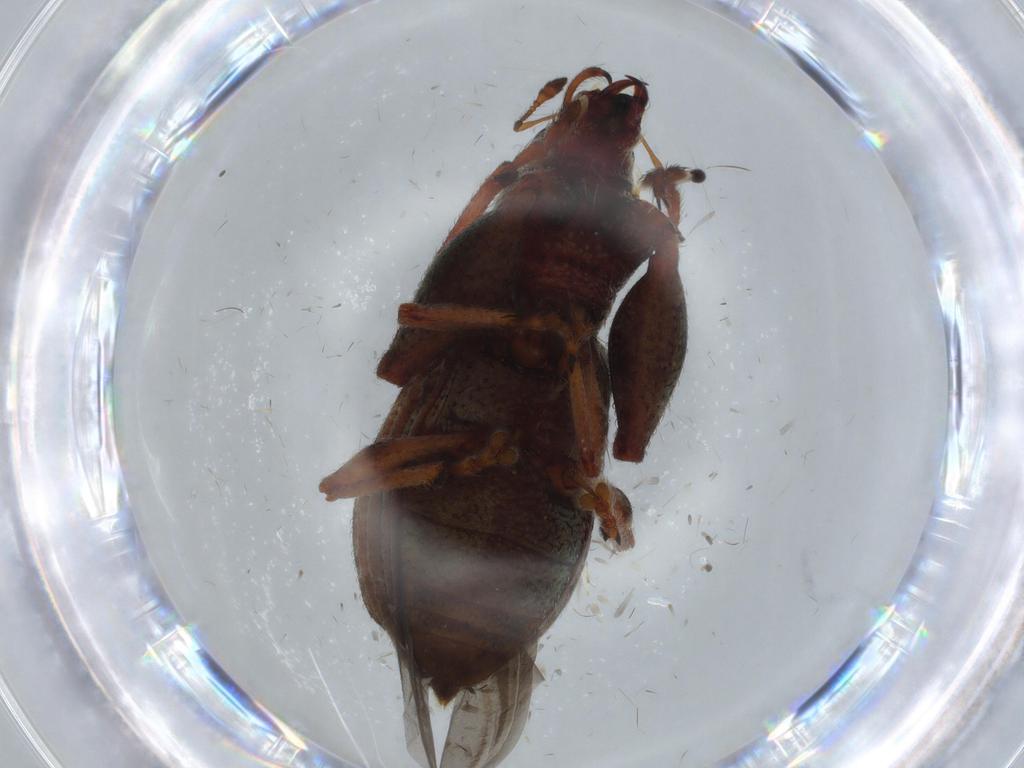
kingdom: Animalia
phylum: Arthropoda
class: Insecta
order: Coleoptera
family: Curculionidae
